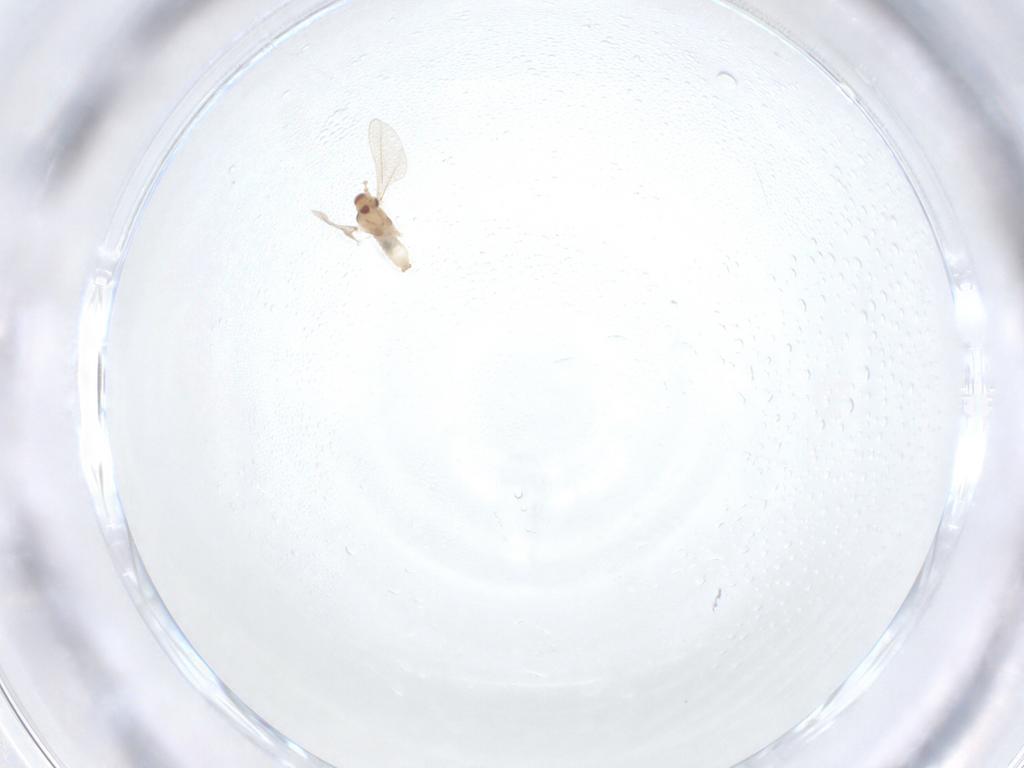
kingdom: Animalia
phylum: Arthropoda
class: Insecta
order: Diptera
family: Cecidomyiidae
